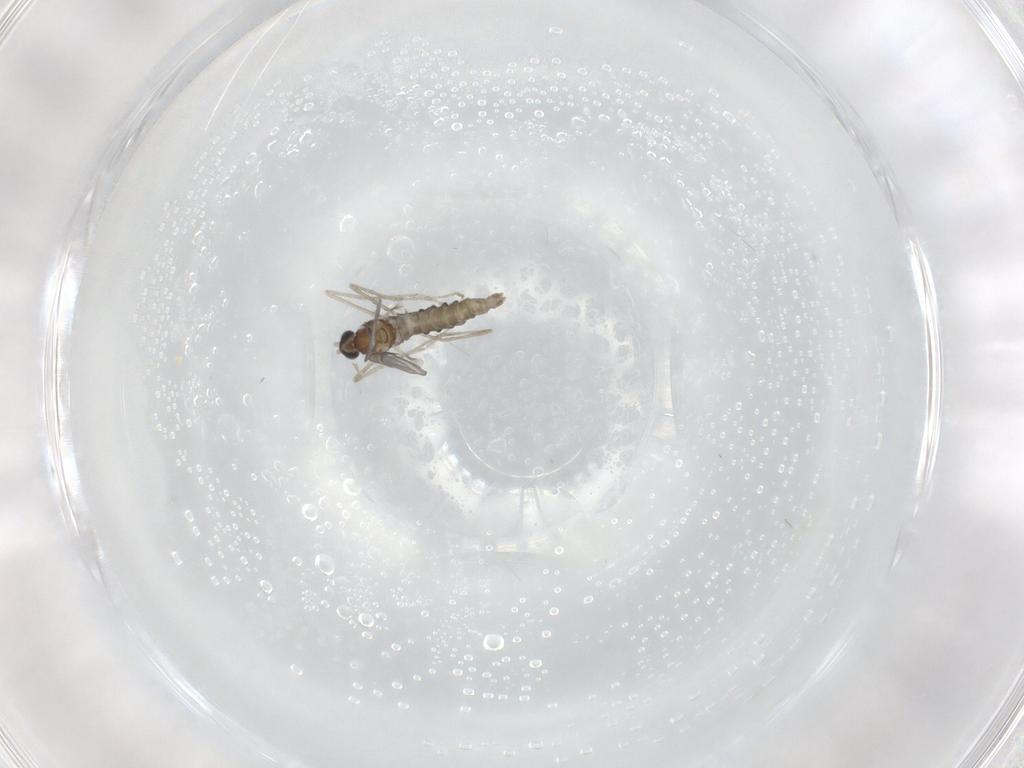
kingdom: Animalia
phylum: Arthropoda
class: Insecta
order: Diptera
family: Cecidomyiidae
